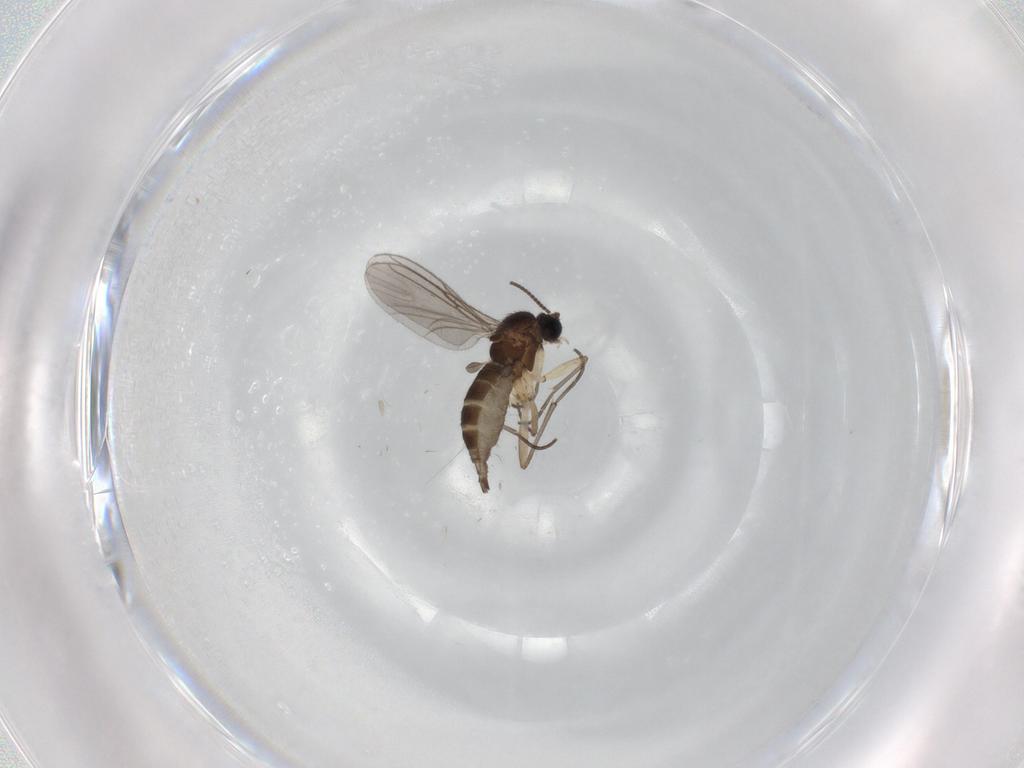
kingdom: Animalia
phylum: Arthropoda
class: Insecta
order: Diptera
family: Sciaridae
